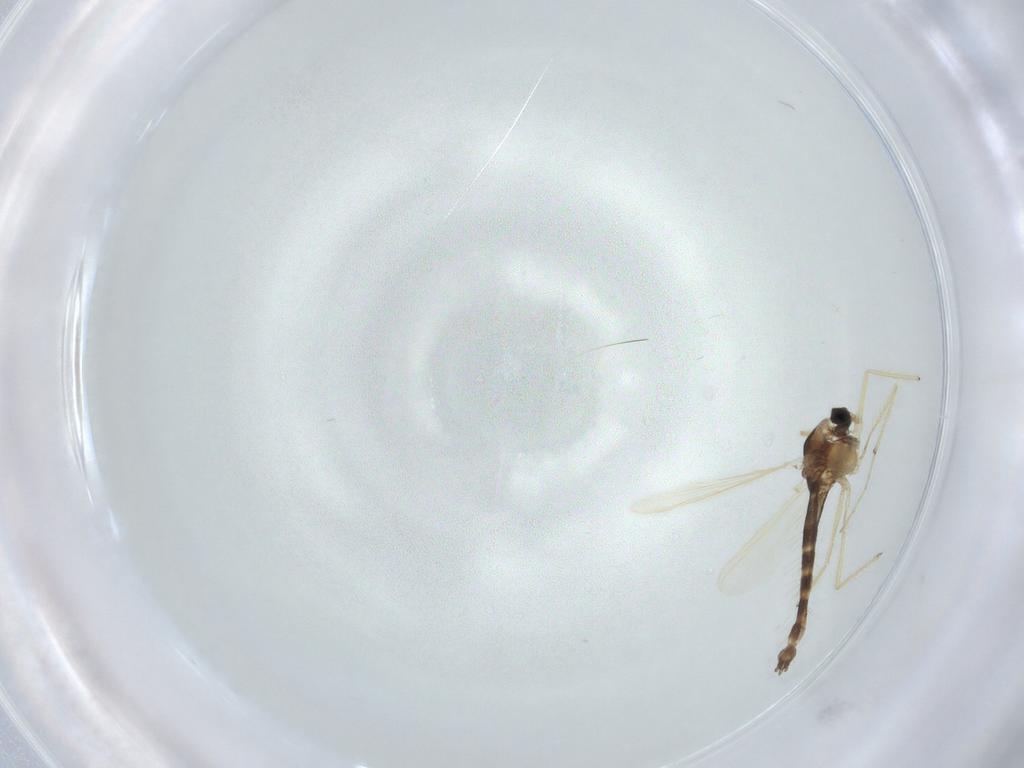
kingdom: Animalia
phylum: Arthropoda
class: Insecta
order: Diptera
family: Chironomidae
